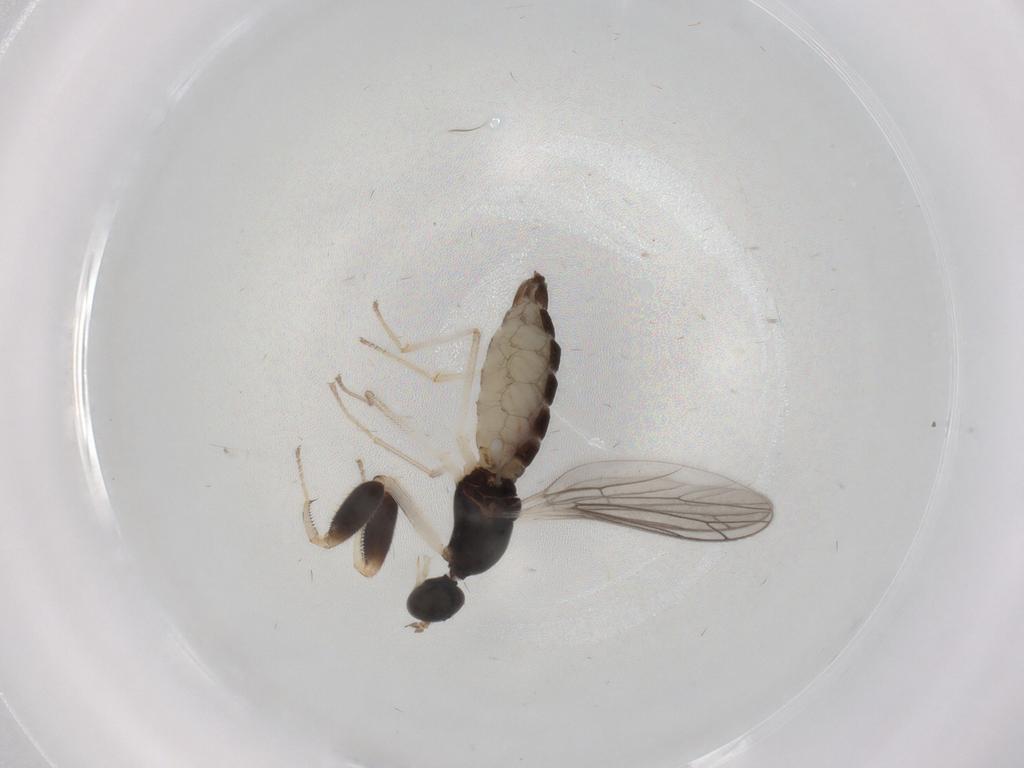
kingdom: Animalia
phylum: Arthropoda
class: Insecta
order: Diptera
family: Empididae
